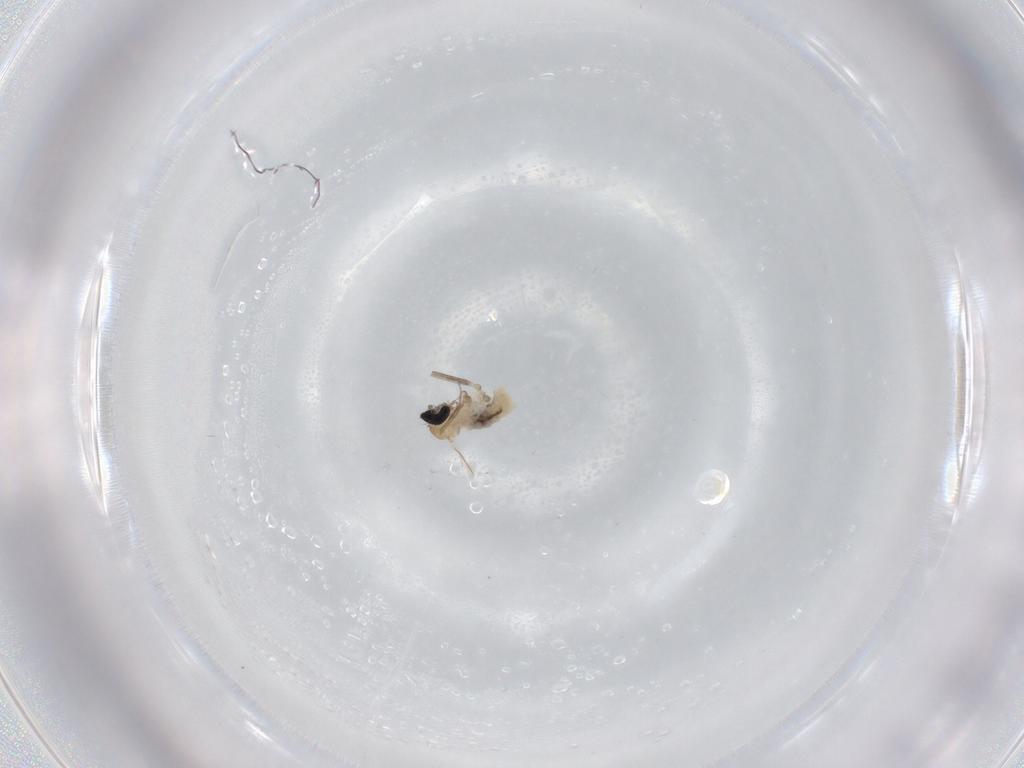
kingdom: Animalia
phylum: Arthropoda
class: Insecta
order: Diptera
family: Cecidomyiidae
